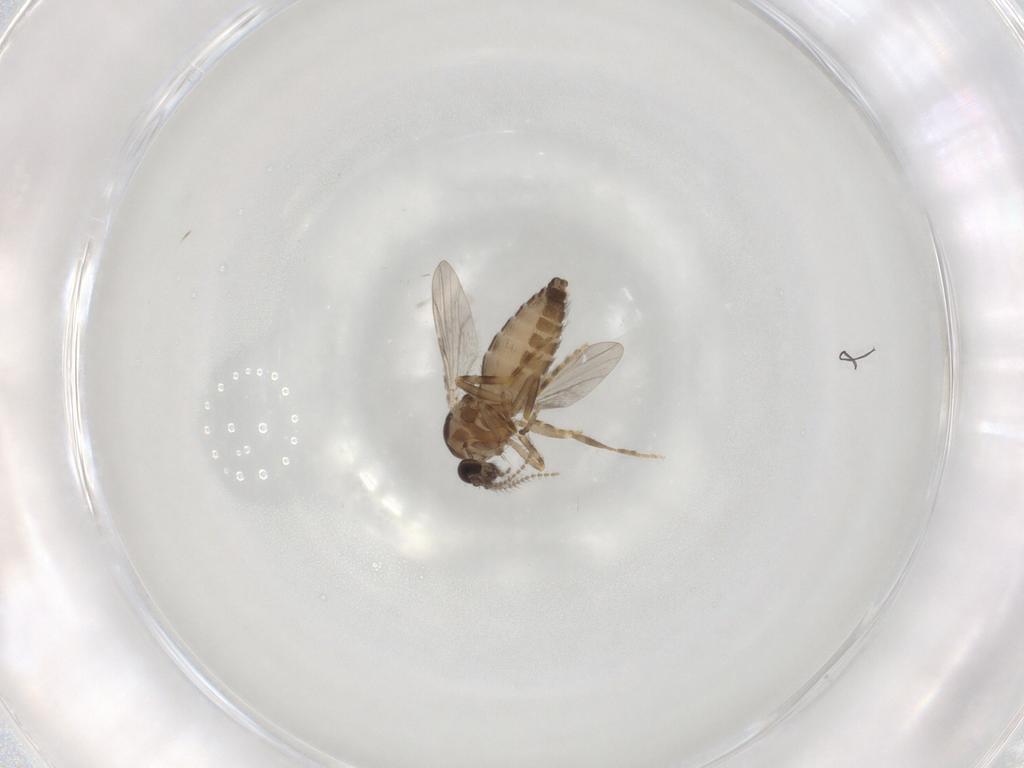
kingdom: Animalia
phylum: Arthropoda
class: Insecta
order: Diptera
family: Ceratopogonidae
